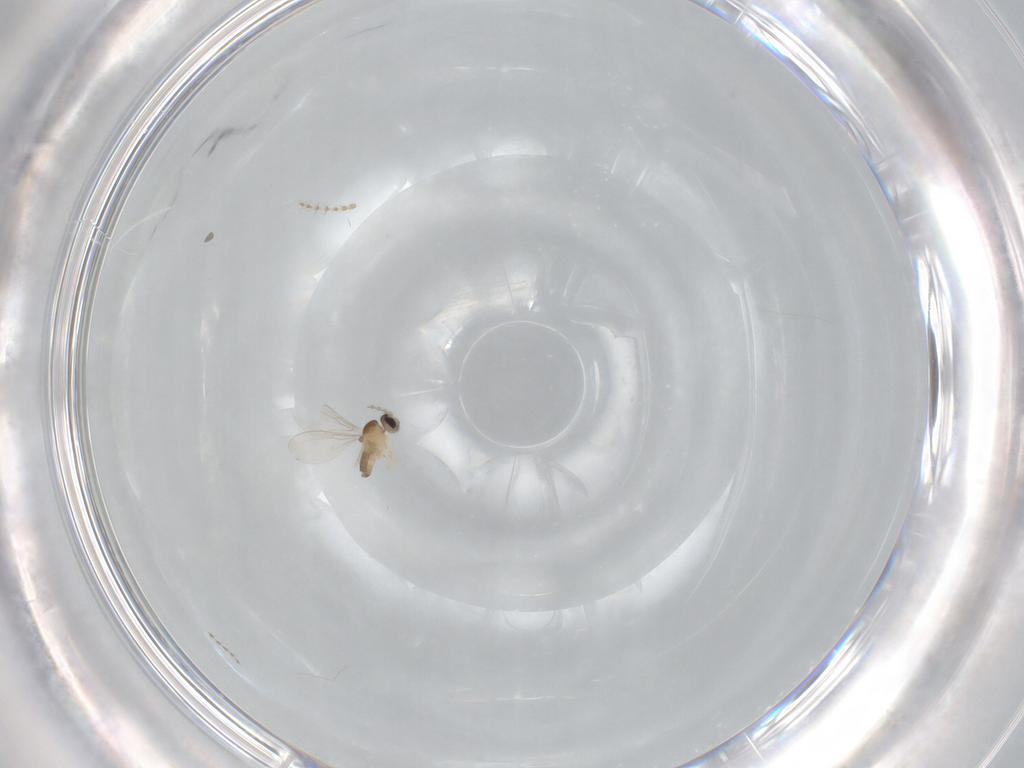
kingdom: Animalia
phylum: Arthropoda
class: Insecta
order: Diptera
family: Cecidomyiidae
